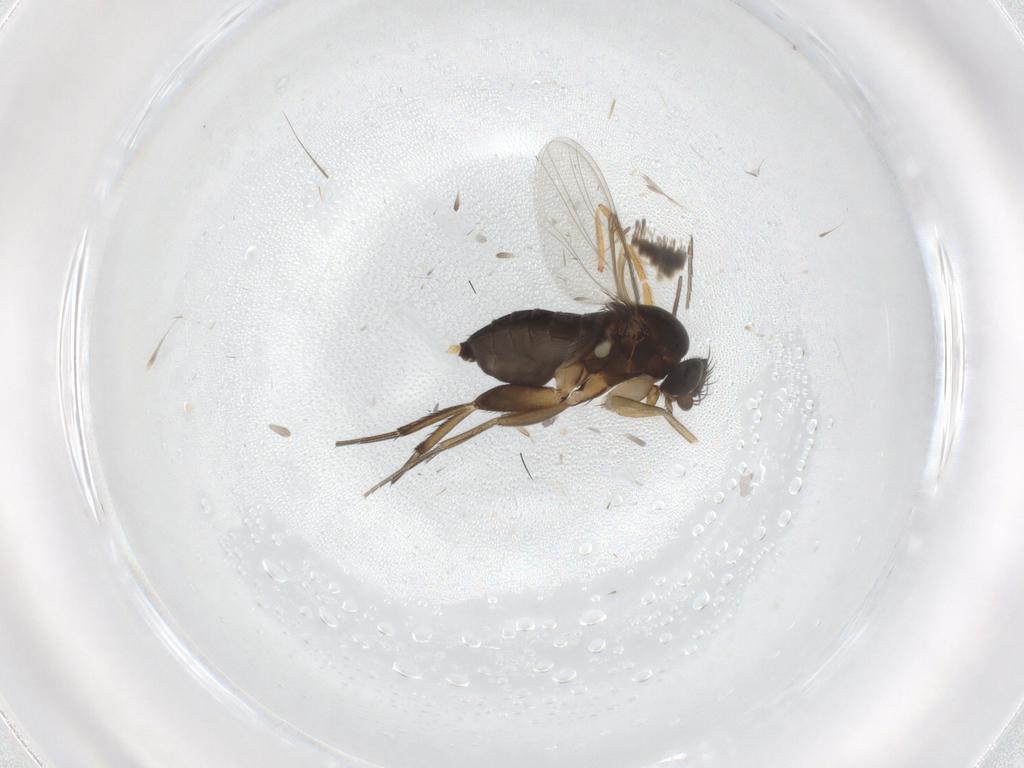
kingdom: Animalia
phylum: Arthropoda
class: Insecta
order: Diptera
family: Phoridae
